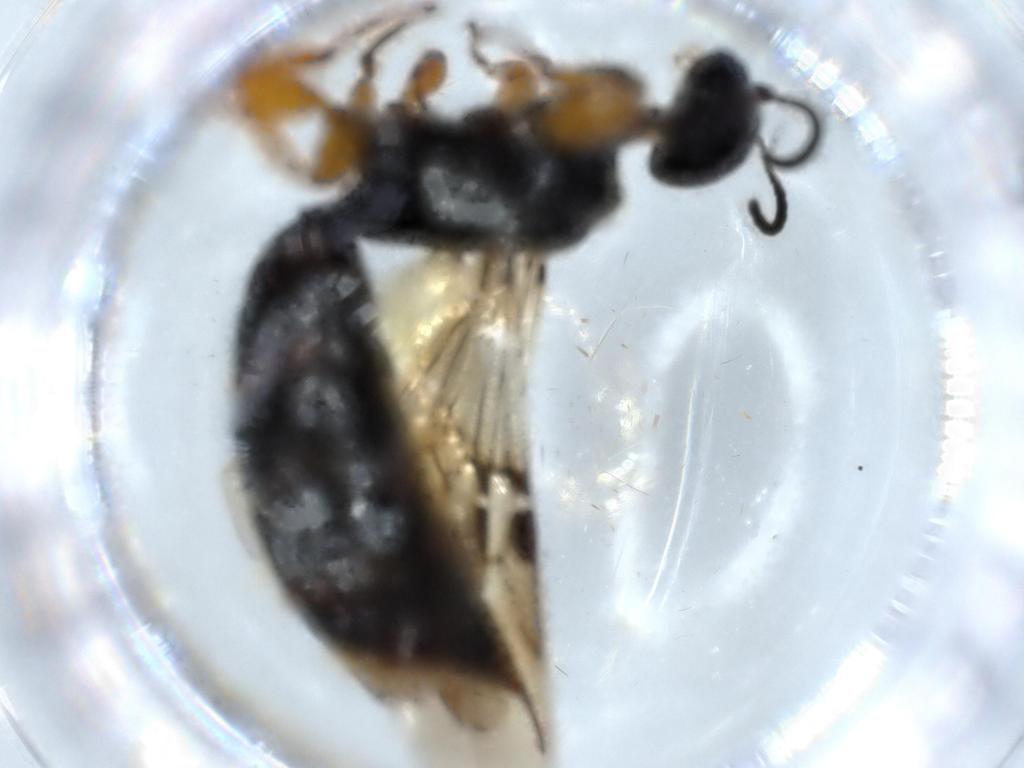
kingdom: Animalia
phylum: Arthropoda
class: Insecta
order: Hymenoptera
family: Scolebythidae
